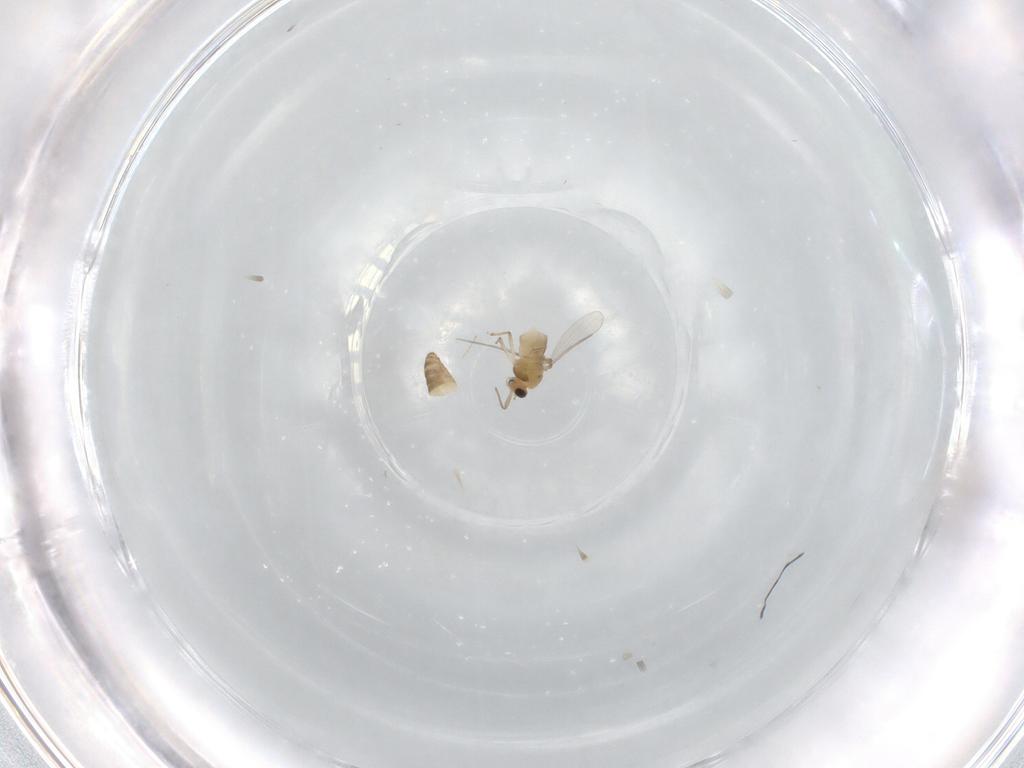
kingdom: Animalia
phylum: Arthropoda
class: Insecta
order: Diptera
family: Chironomidae
